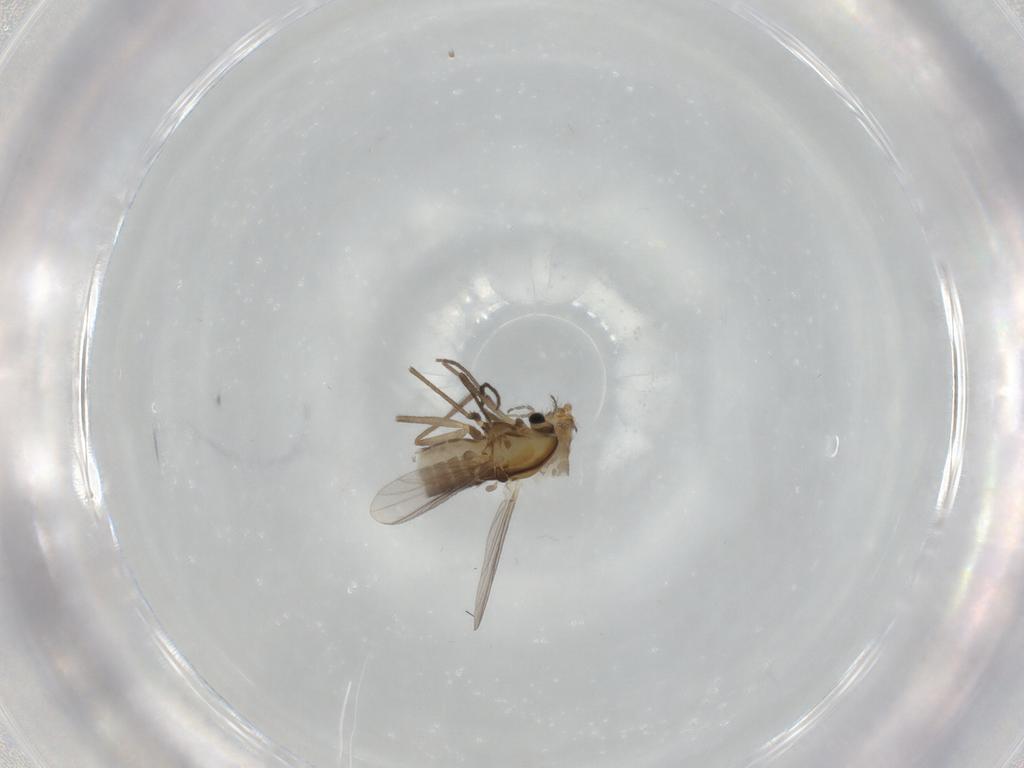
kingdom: Animalia
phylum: Arthropoda
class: Insecta
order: Diptera
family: Chironomidae
